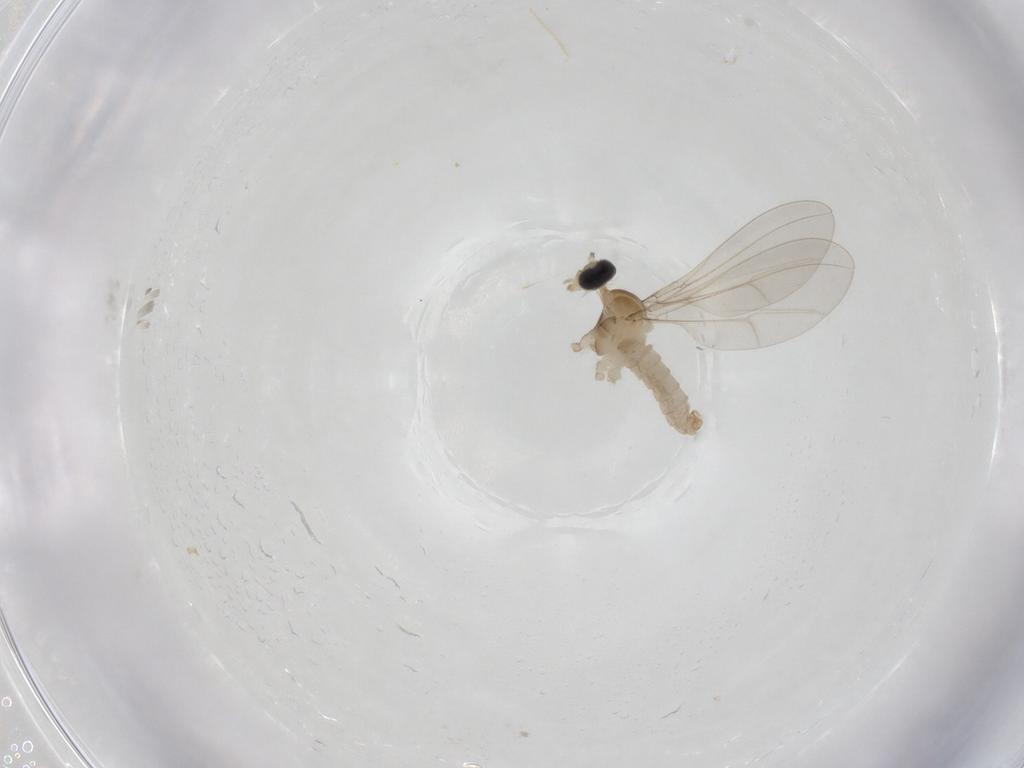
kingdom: Animalia
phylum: Arthropoda
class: Insecta
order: Diptera
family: Cecidomyiidae
